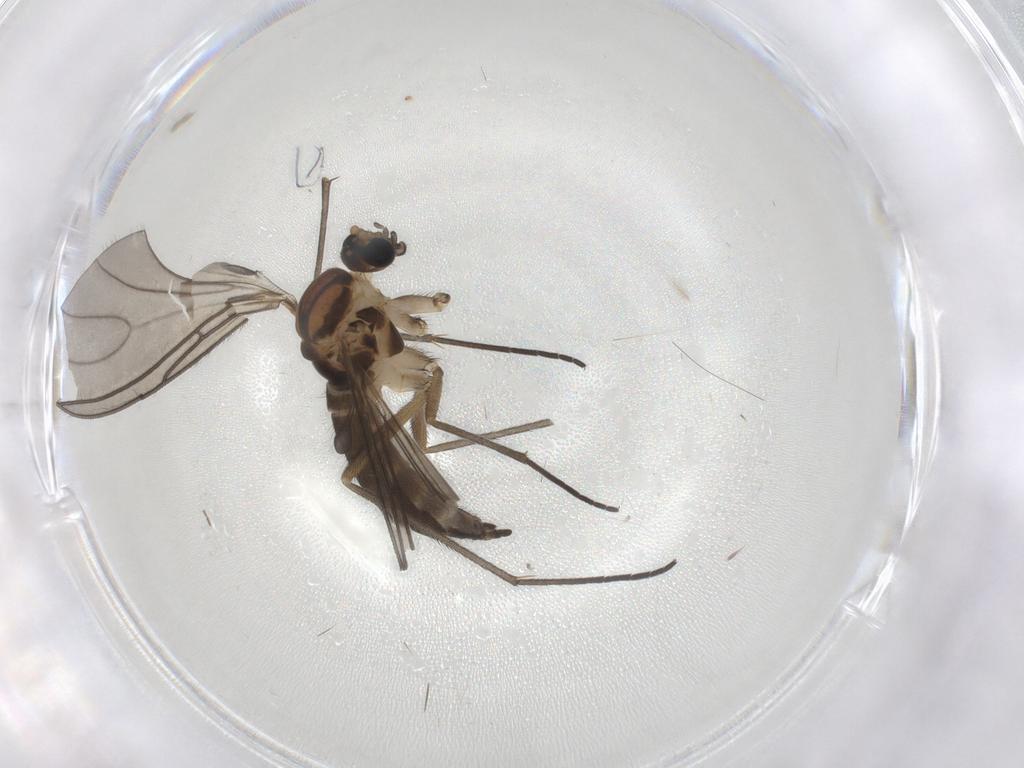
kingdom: Animalia
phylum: Arthropoda
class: Insecta
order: Diptera
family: Sciaridae
